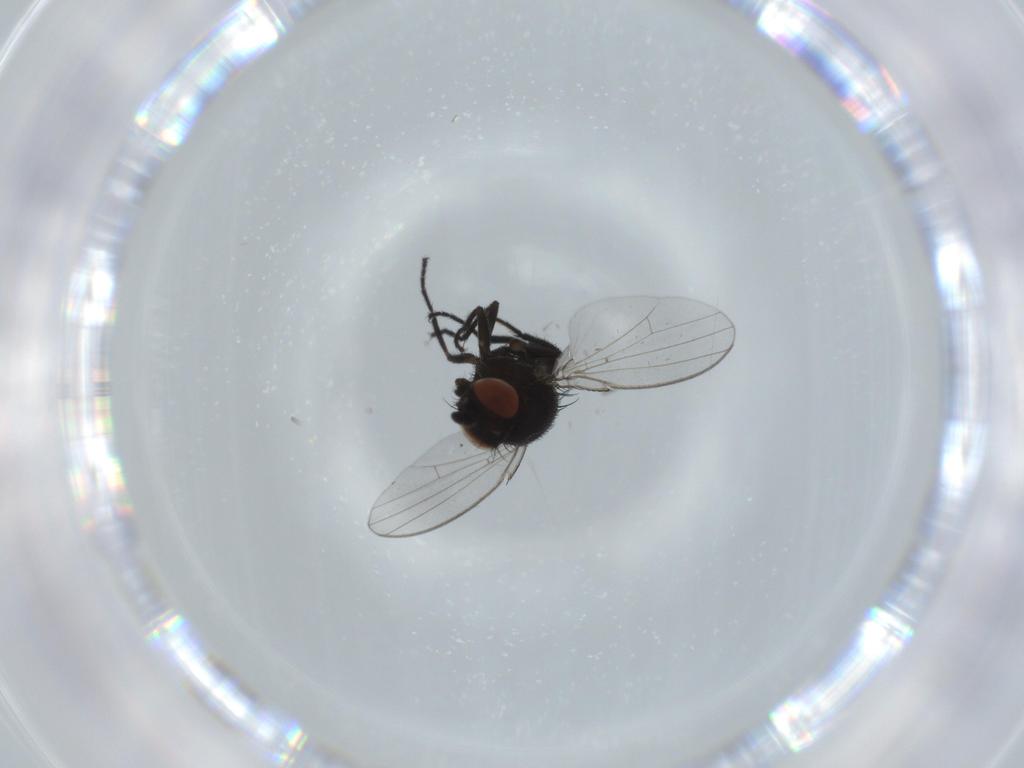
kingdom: Animalia
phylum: Arthropoda
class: Insecta
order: Diptera
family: Milichiidae
